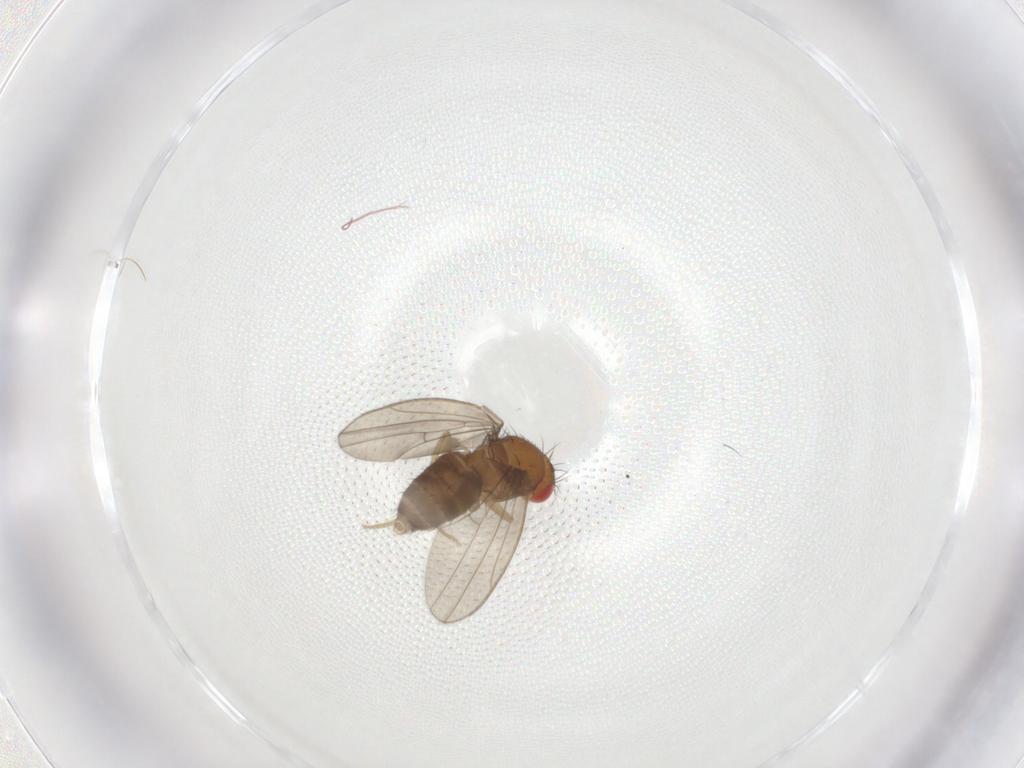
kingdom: Animalia
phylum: Arthropoda
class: Insecta
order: Diptera
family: Drosophilidae
